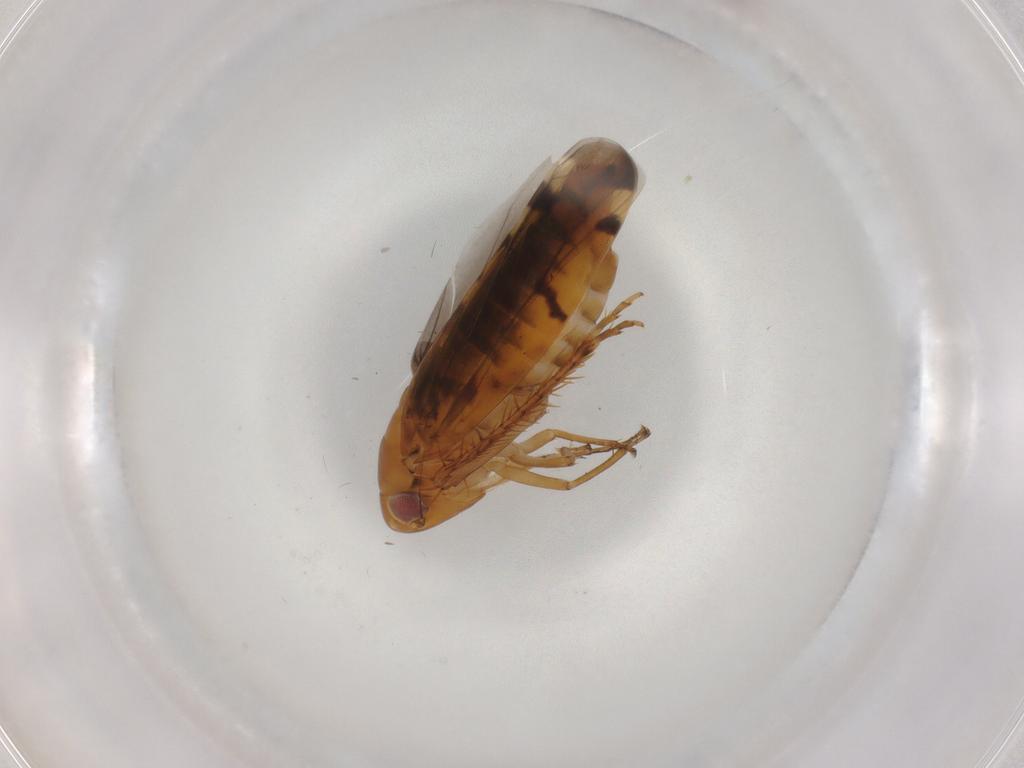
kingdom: Animalia
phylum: Arthropoda
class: Insecta
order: Hemiptera
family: Cicadellidae
